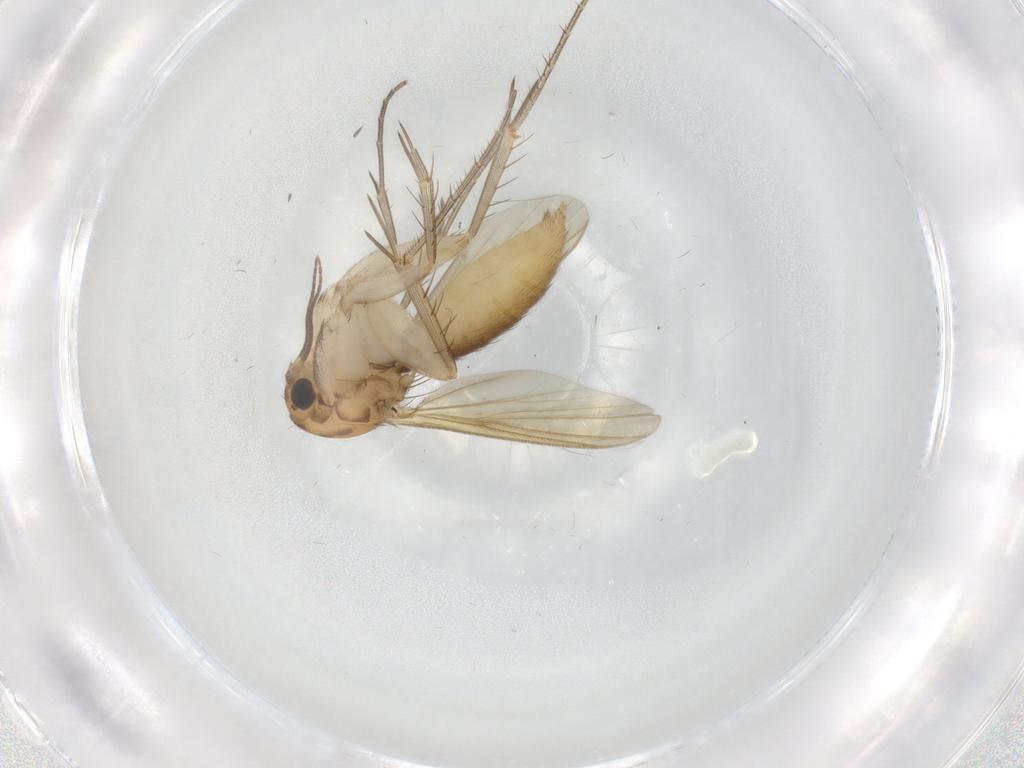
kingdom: Animalia
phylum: Arthropoda
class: Insecta
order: Diptera
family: Mycetophilidae
